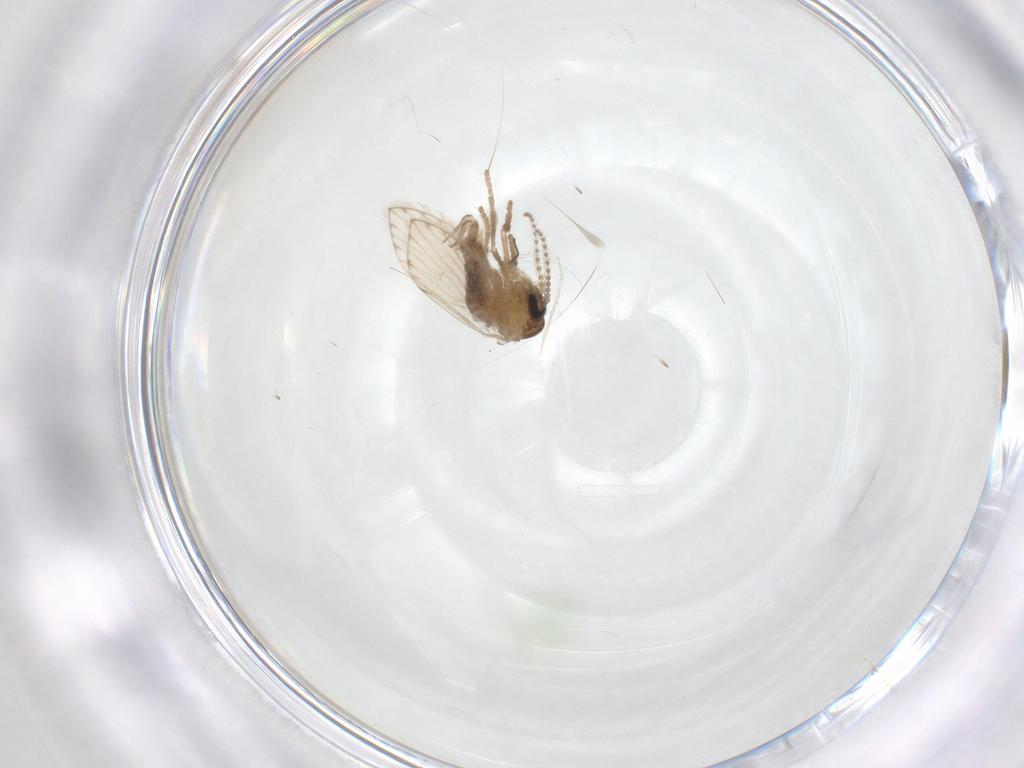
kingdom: Animalia
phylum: Arthropoda
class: Insecta
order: Diptera
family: Psychodidae
